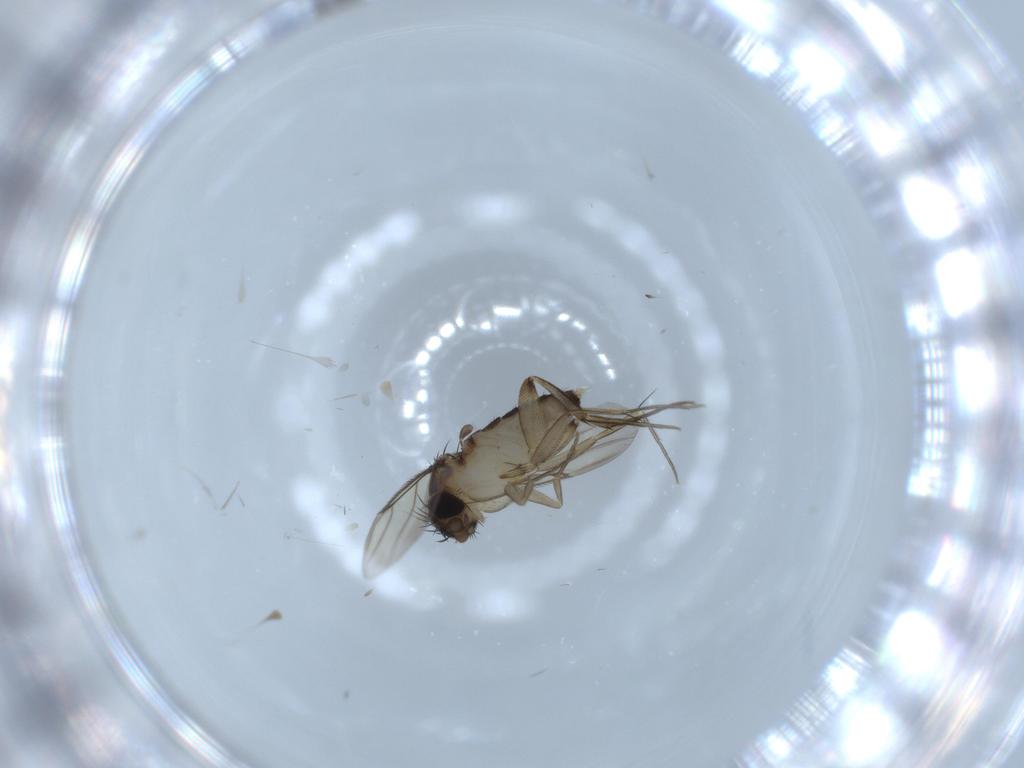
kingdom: Animalia
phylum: Arthropoda
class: Insecta
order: Diptera
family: Phoridae
